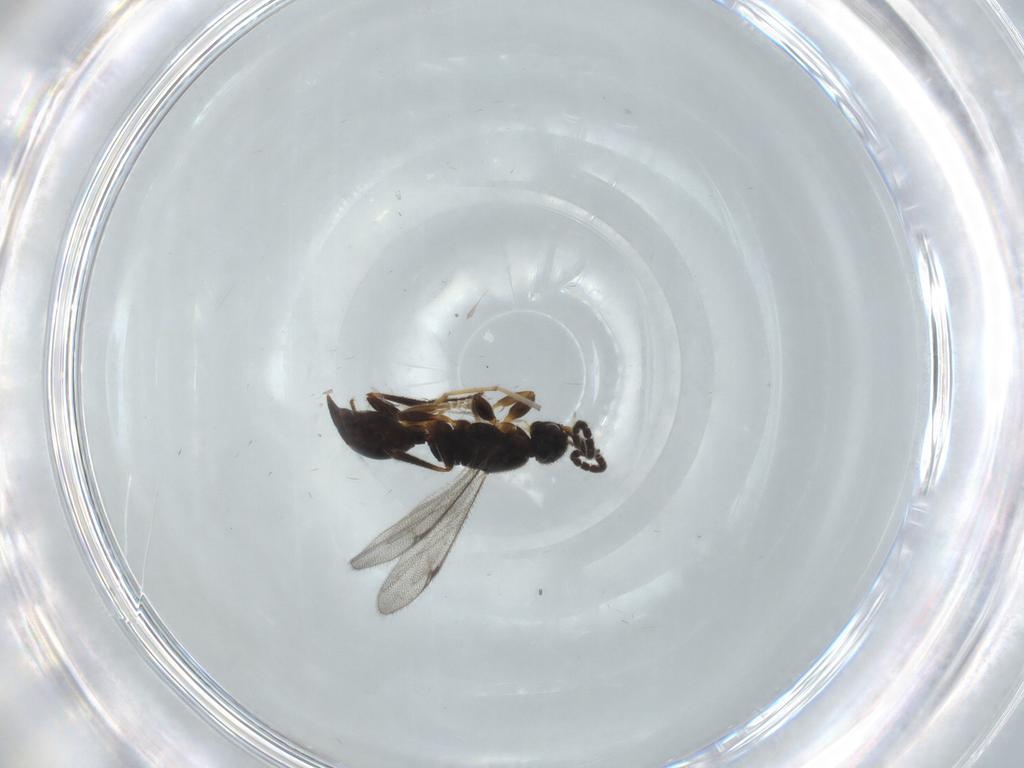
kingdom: Animalia
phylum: Arthropoda
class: Insecta
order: Hymenoptera
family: Proctotrupidae
